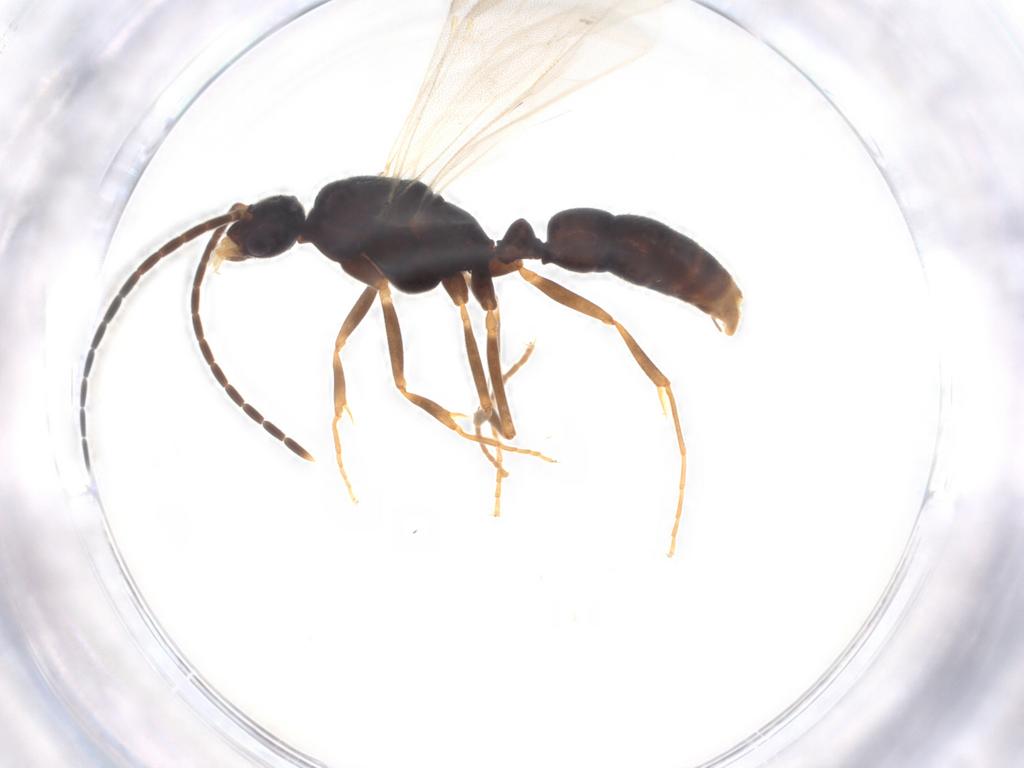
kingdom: Animalia
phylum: Arthropoda
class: Insecta
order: Hymenoptera
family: Formicidae
